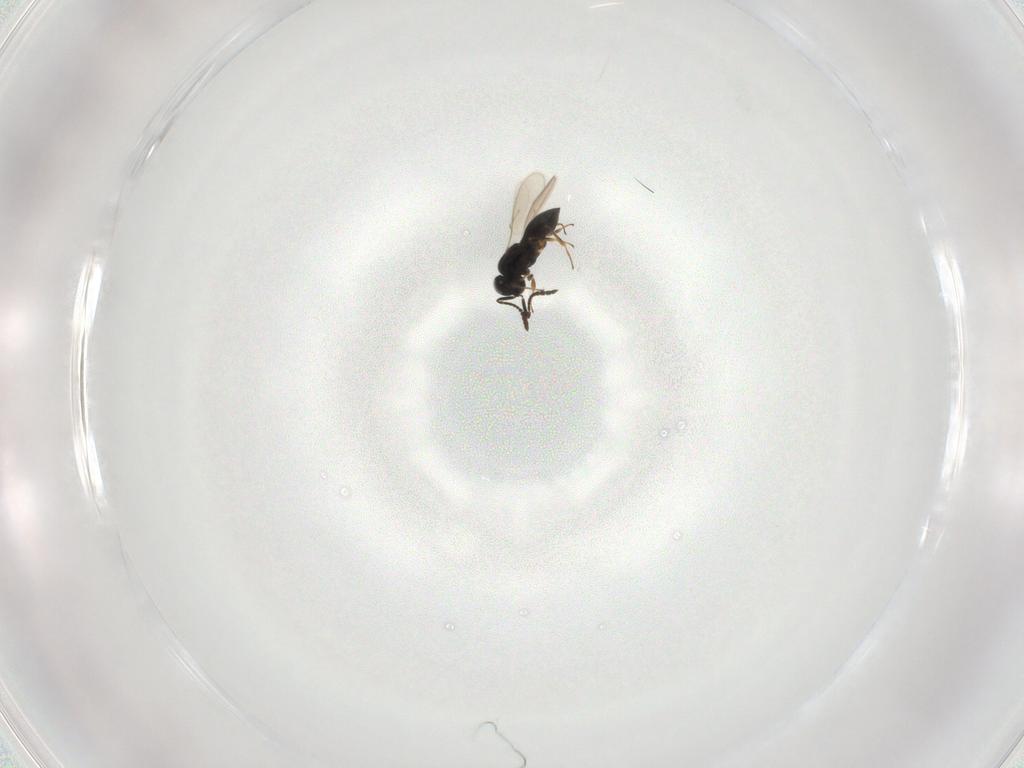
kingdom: Animalia
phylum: Arthropoda
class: Insecta
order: Hymenoptera
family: Scelionidae
